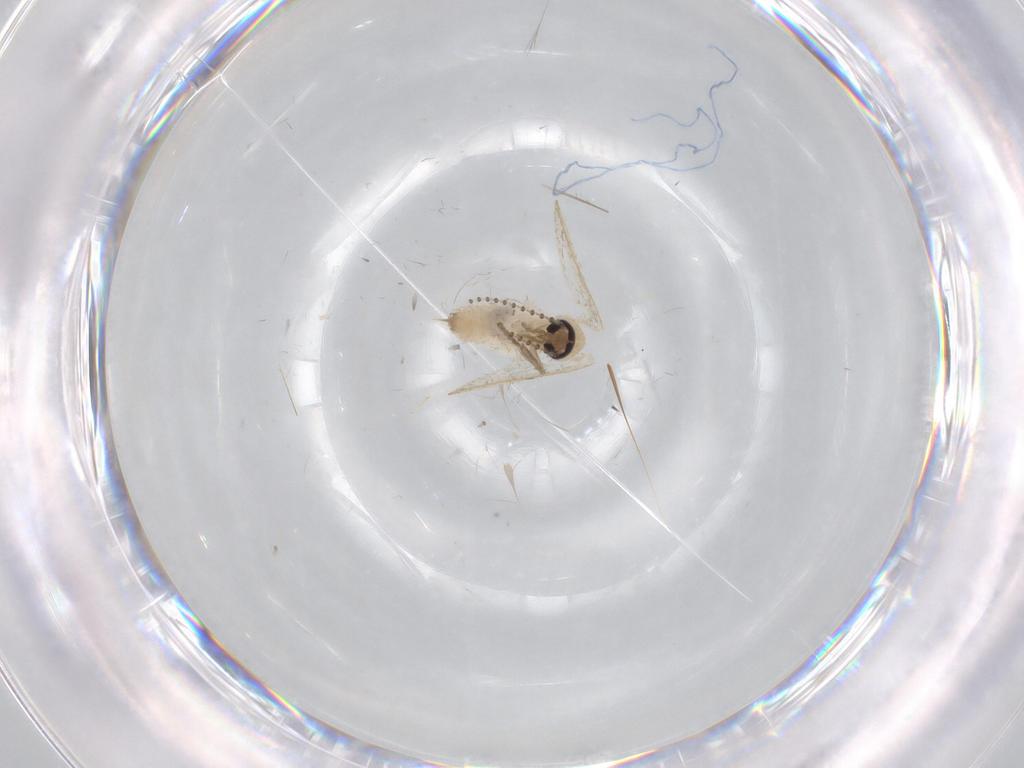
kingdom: Animalia
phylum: Arthropoda
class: Insecta
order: Diptera
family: Psychodidae
